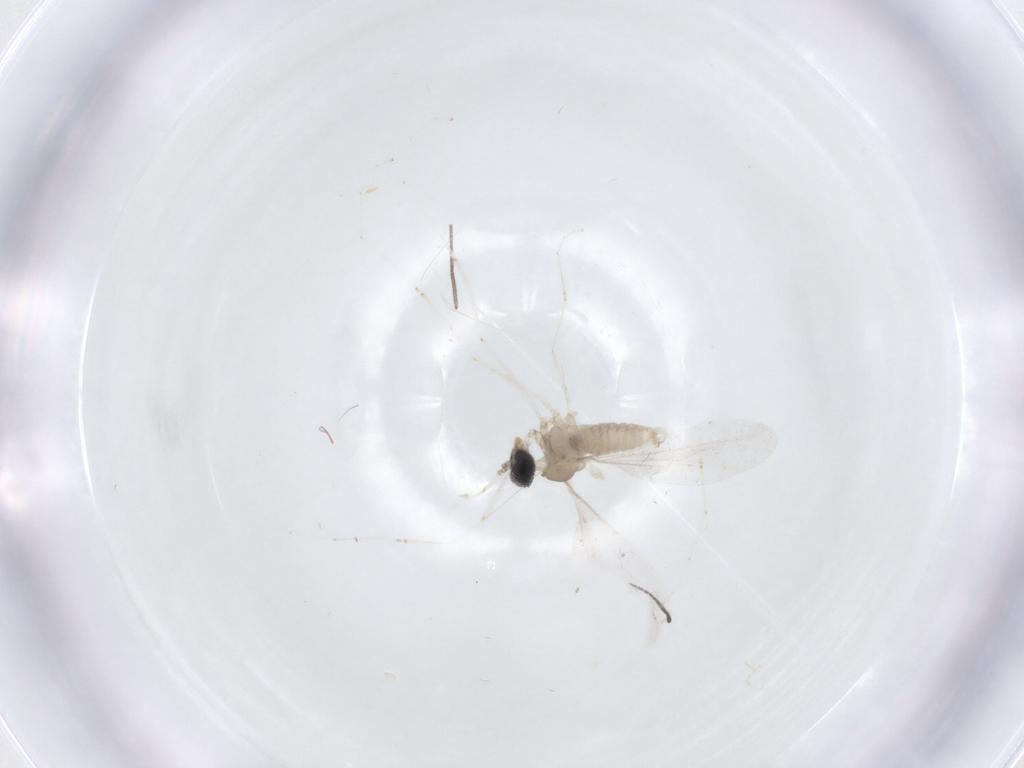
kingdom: Animalia
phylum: Arthropoda
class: Insecta
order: Diptera
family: Cecidomyiidae
